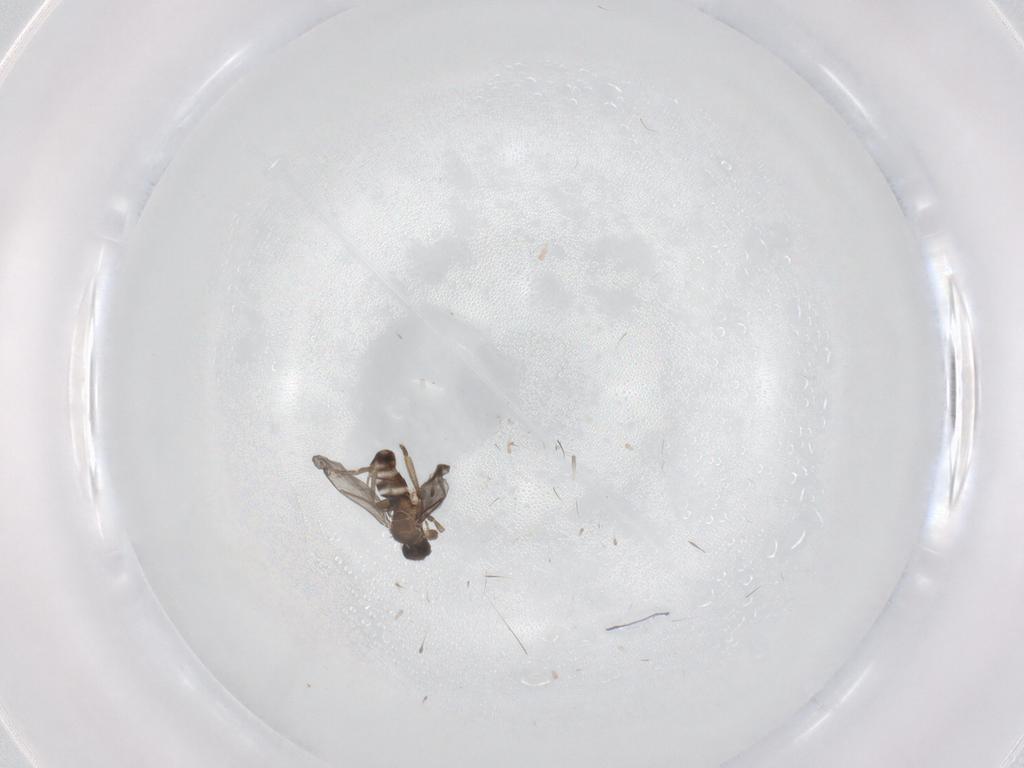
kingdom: Animalia
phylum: Arthropoda
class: Insecta
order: Diptera
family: Tabanidae
